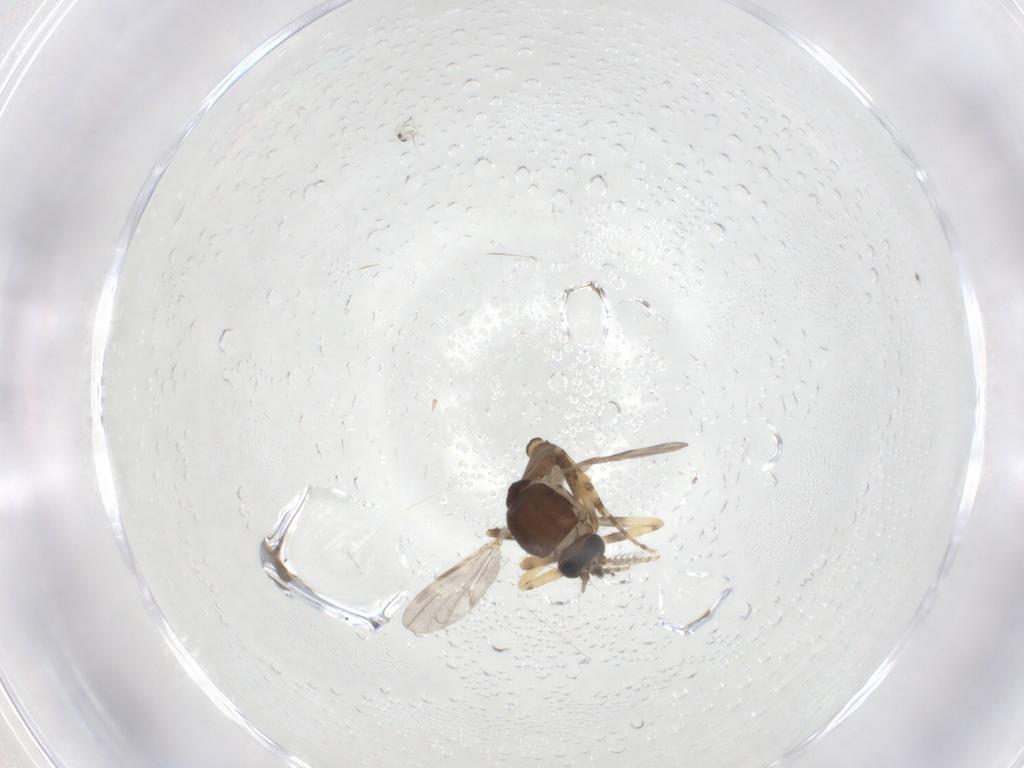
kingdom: Animalia
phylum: Arthropoda
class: Insecta
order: Diptera
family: Ceratopogonidae
